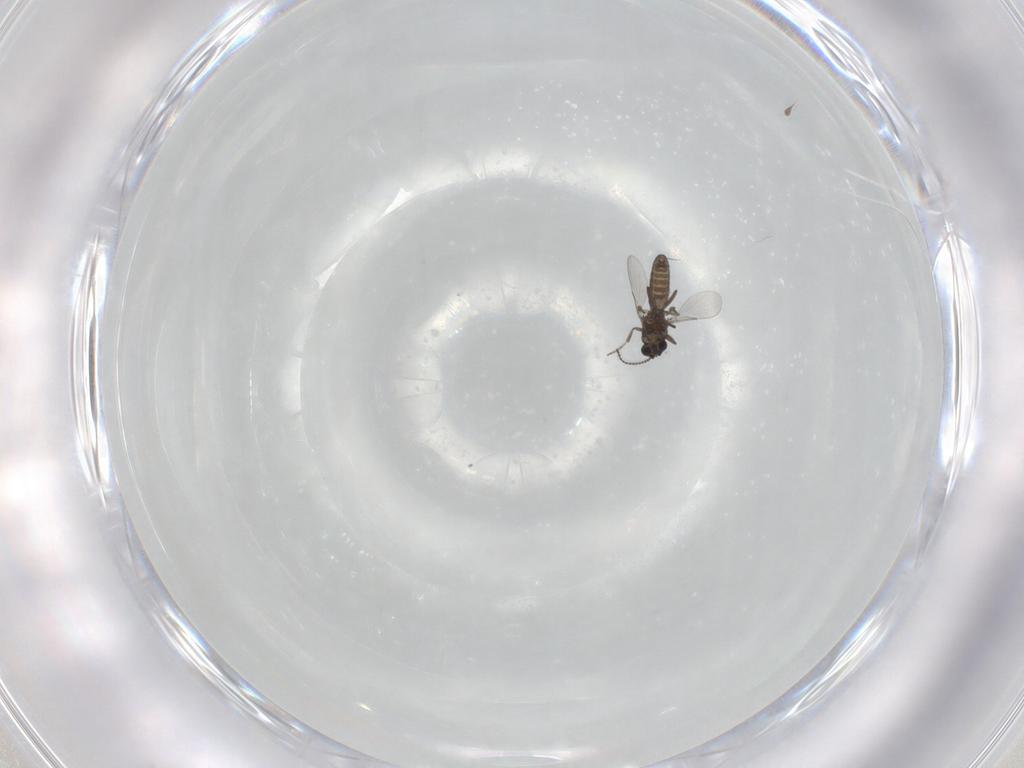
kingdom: Animalia
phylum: Arthropoda
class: Insecta
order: Diptera
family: Ceratopogonidae
